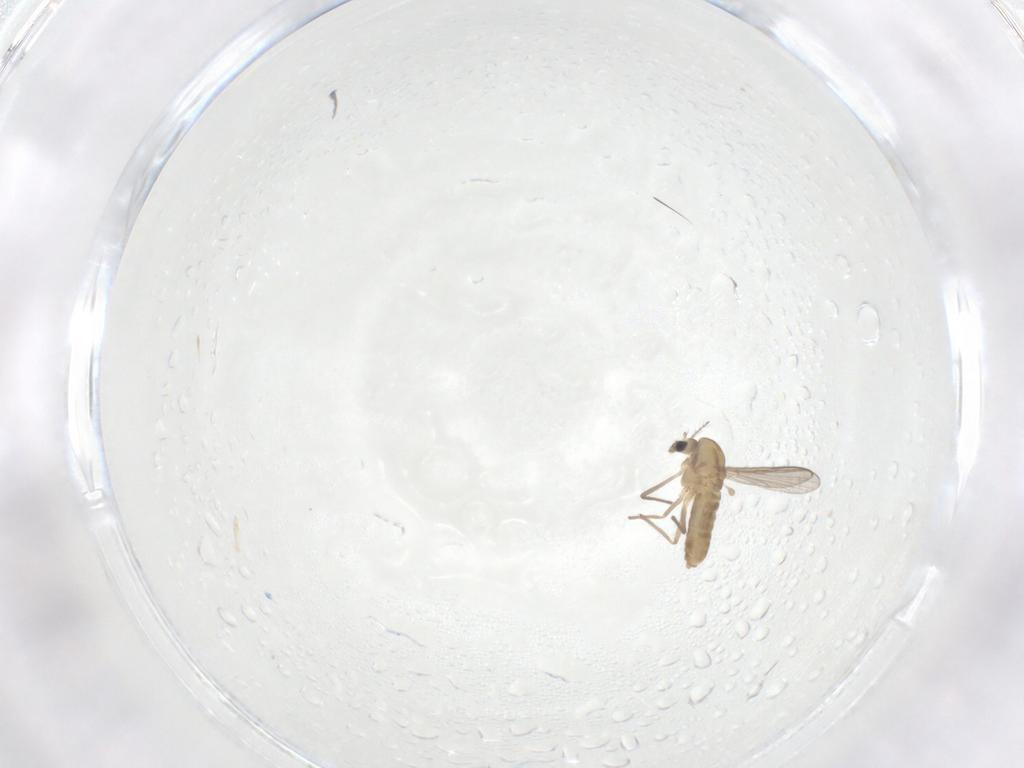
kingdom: Animalia
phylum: Arthropoda
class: Insecta
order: Diptera
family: Chironomidae
